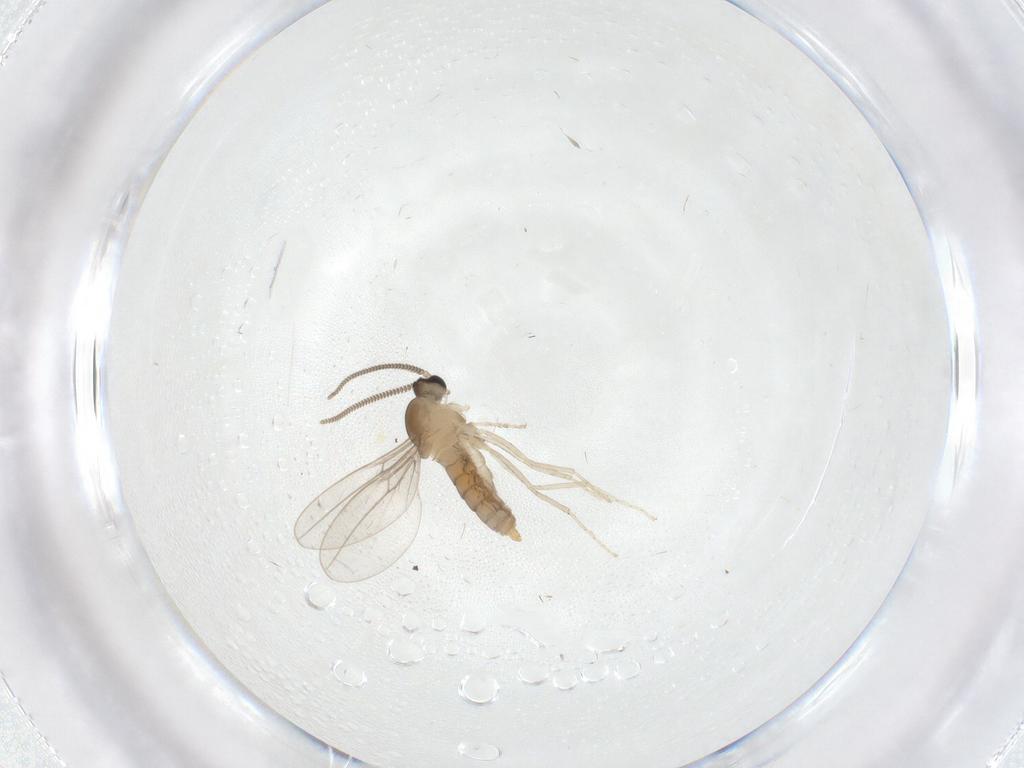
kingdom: Animalia
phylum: Arthropoda
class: Insecta
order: Diptera
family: Cecidomyiidae
